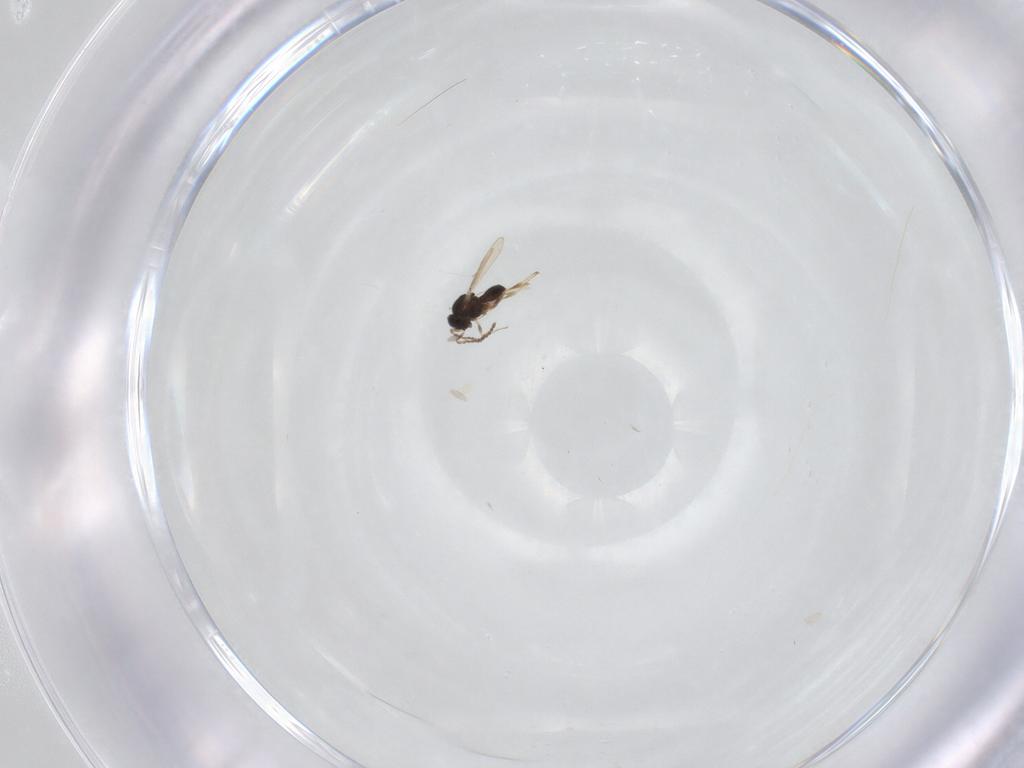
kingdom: Animalia
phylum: Arthropoda
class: Insecta
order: Hymenoptera
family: Scelionidae
